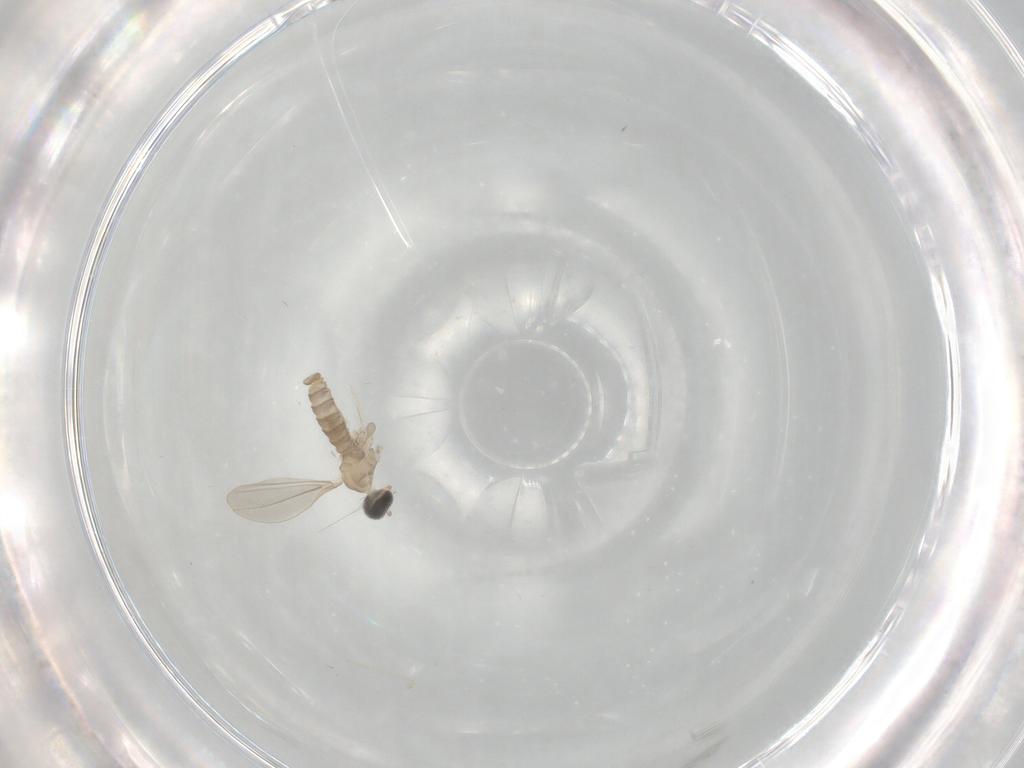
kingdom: Animalia
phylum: Arthropoda
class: Insecta
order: Diptera
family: Cecidomyiidae
